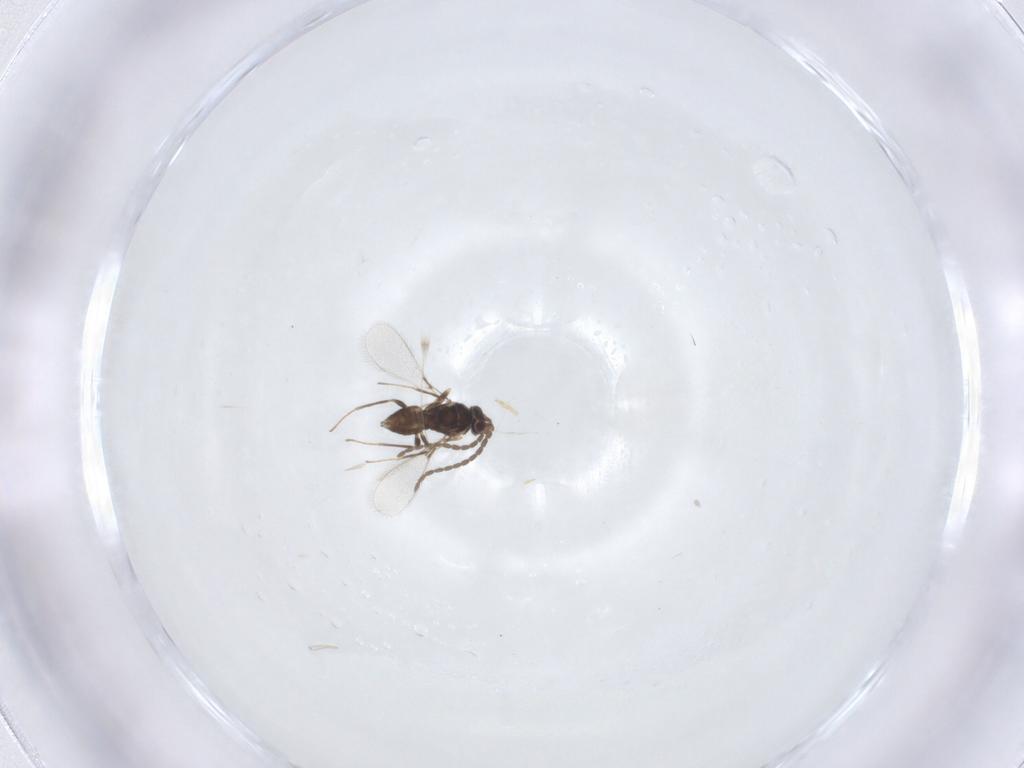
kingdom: Animalia
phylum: Arthropoda
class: Insecta
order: Hymenoptera
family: Mymaridae
